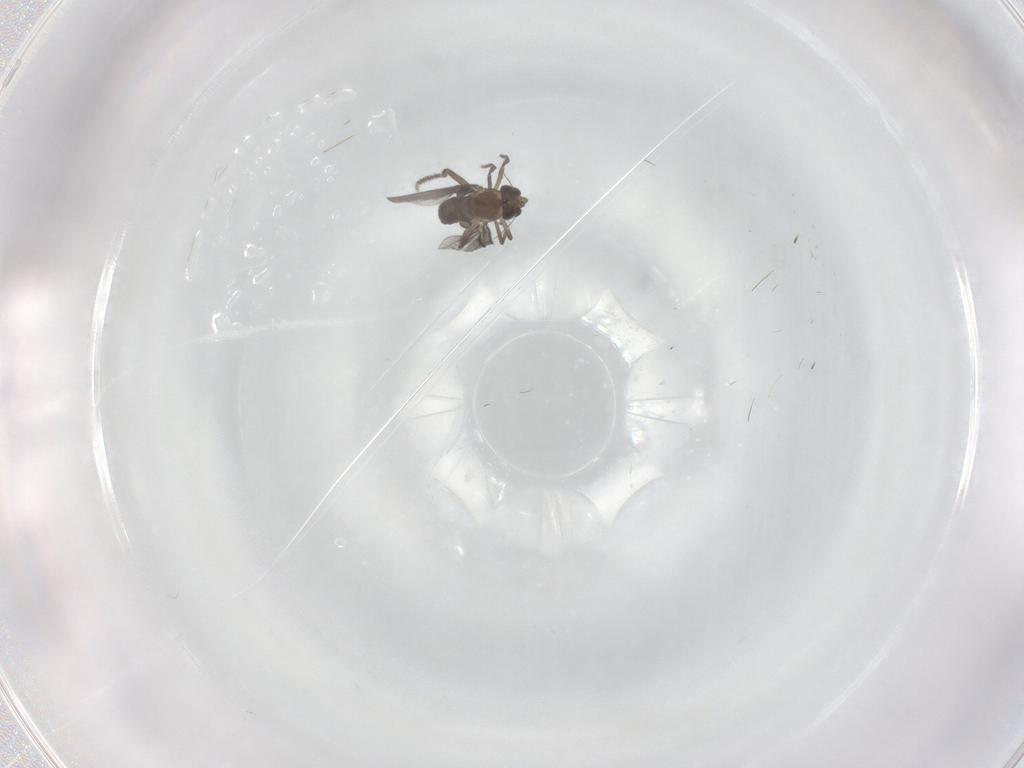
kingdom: Animalia
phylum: Arthropoda
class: Insecta
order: Diptera
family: Phoridae
